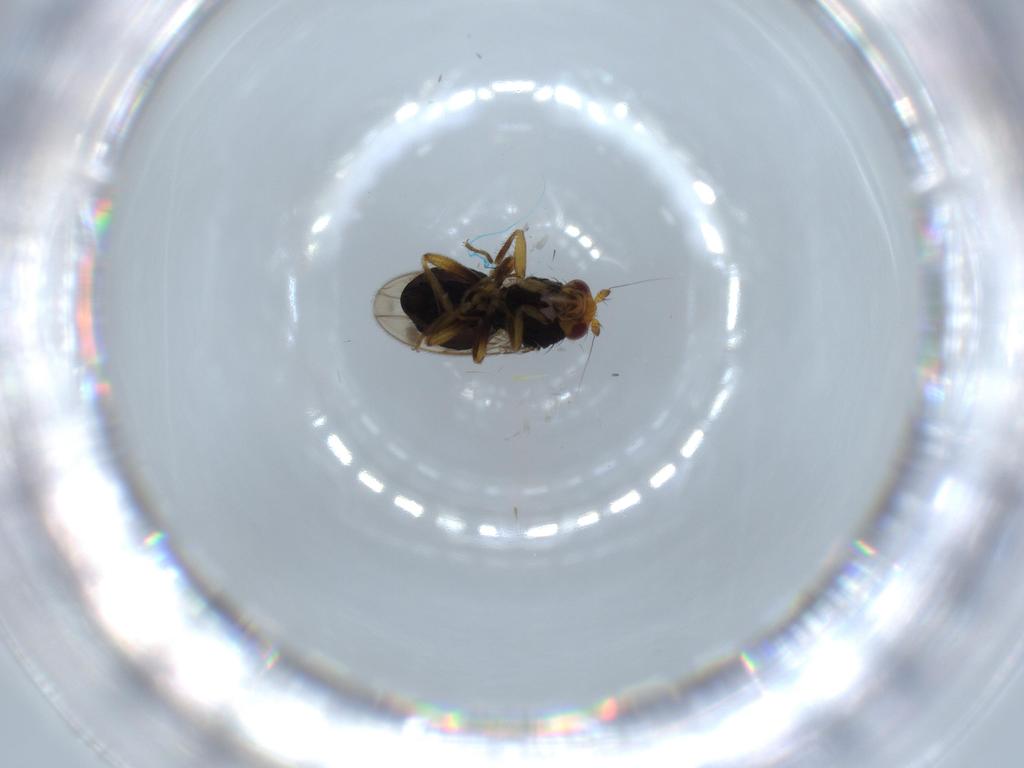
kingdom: Animalia
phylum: Arthropoda
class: Insecta
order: Diptera
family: Sphaeroceridae
